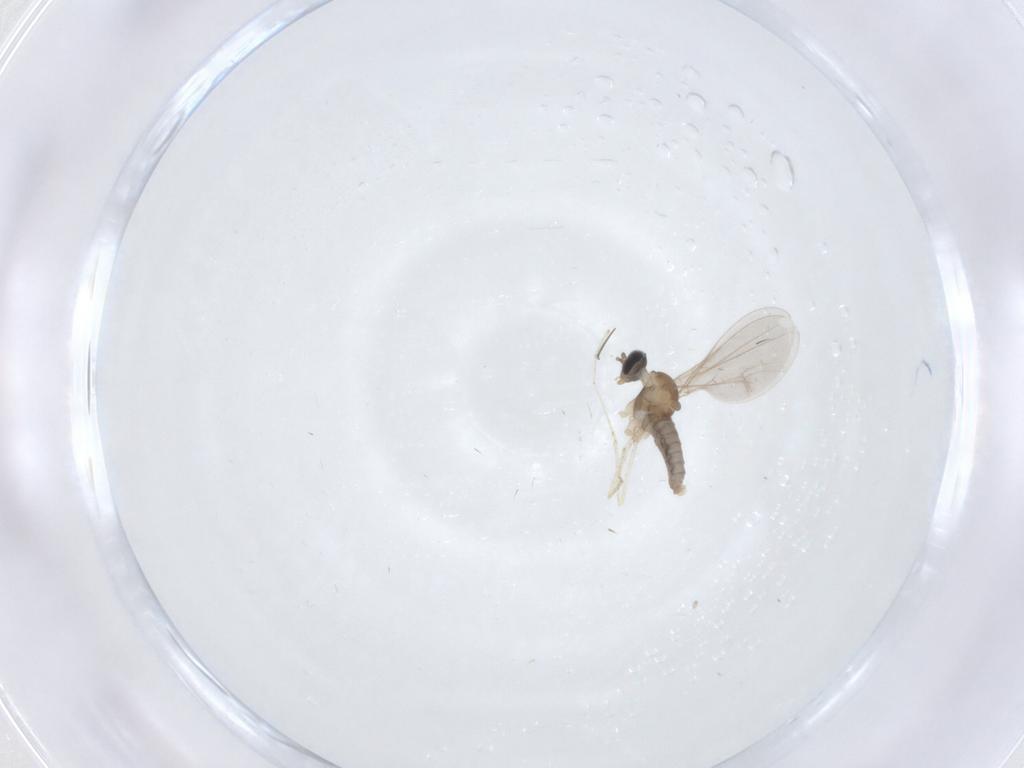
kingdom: Animalia
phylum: Arthropoda
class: Insecta
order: Diptera
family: Cecidomyiidae
